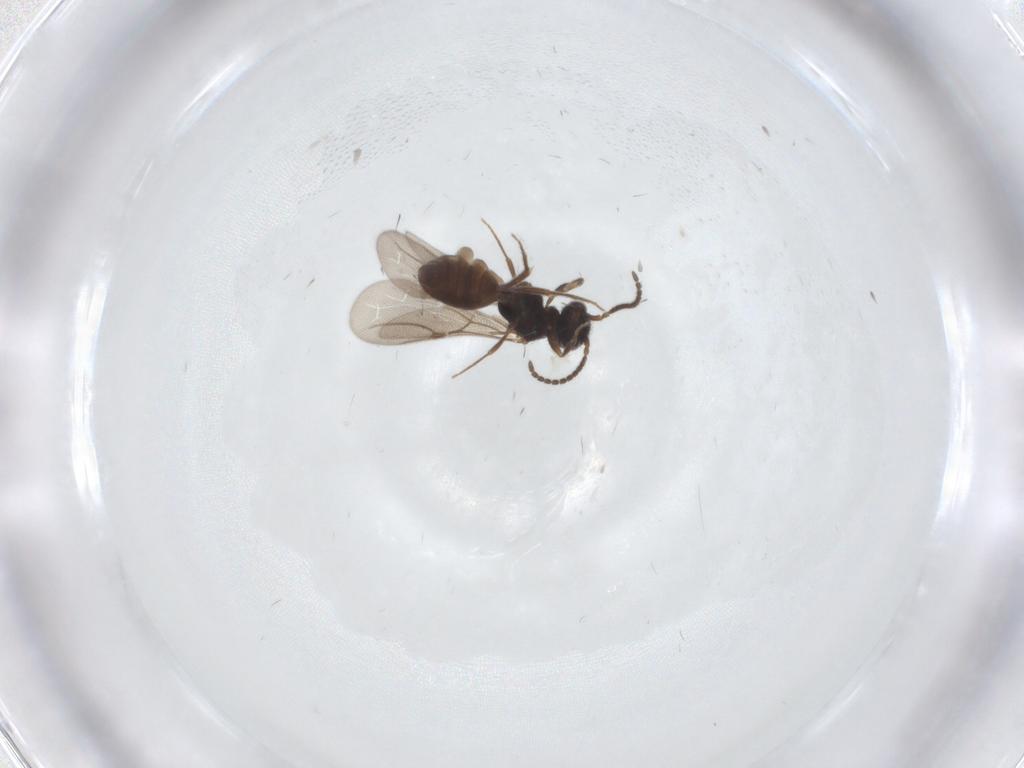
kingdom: Animalia
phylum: Arthropoda
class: Insecta
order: Hymenoptera
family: Bethylidae
